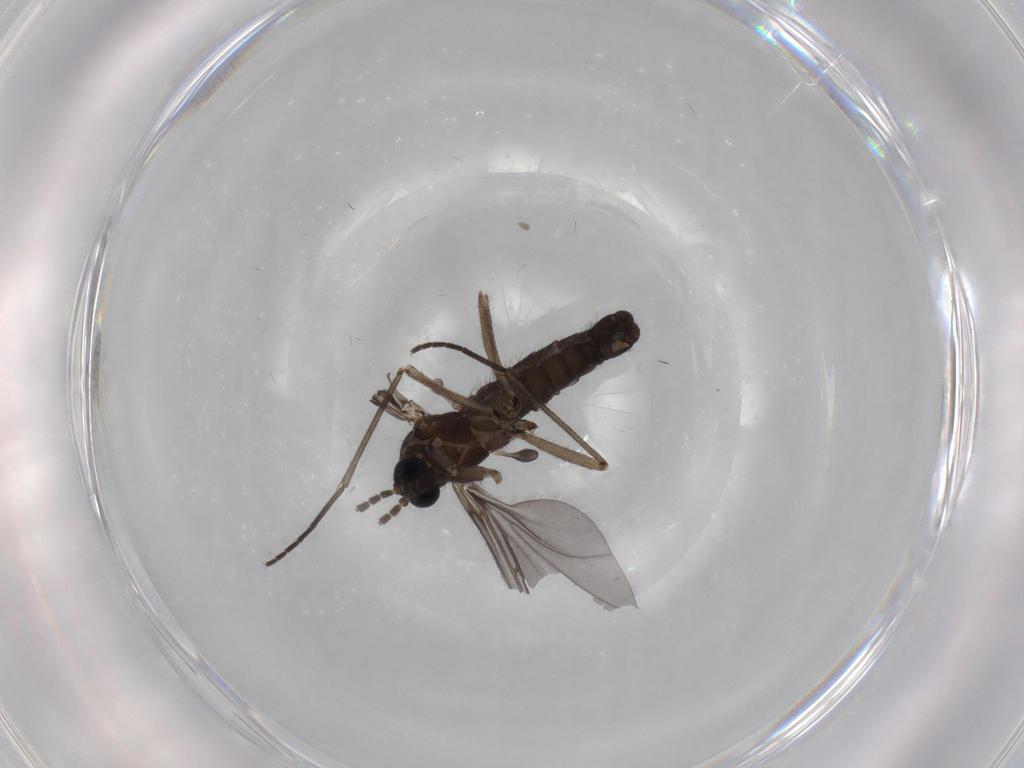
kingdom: Animalia
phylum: Arthropoda
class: Insecta
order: Diptera
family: Sciaridae
